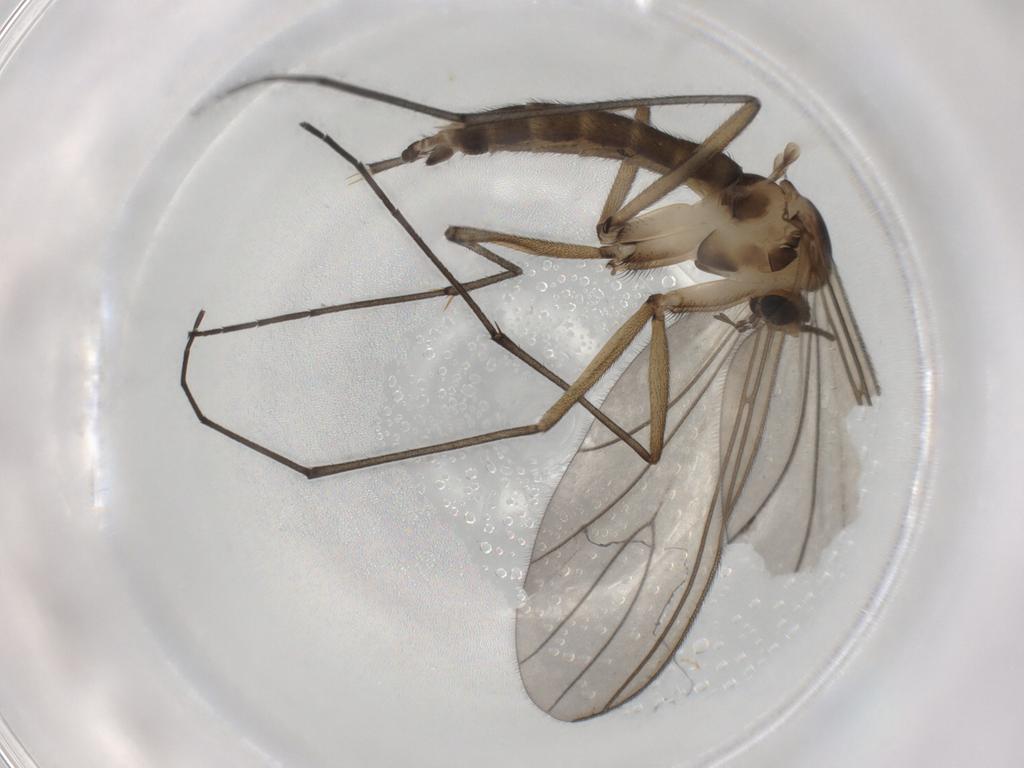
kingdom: Animalia
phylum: Arthropoda
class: Insecta
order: Diptera
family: Sciaridae
